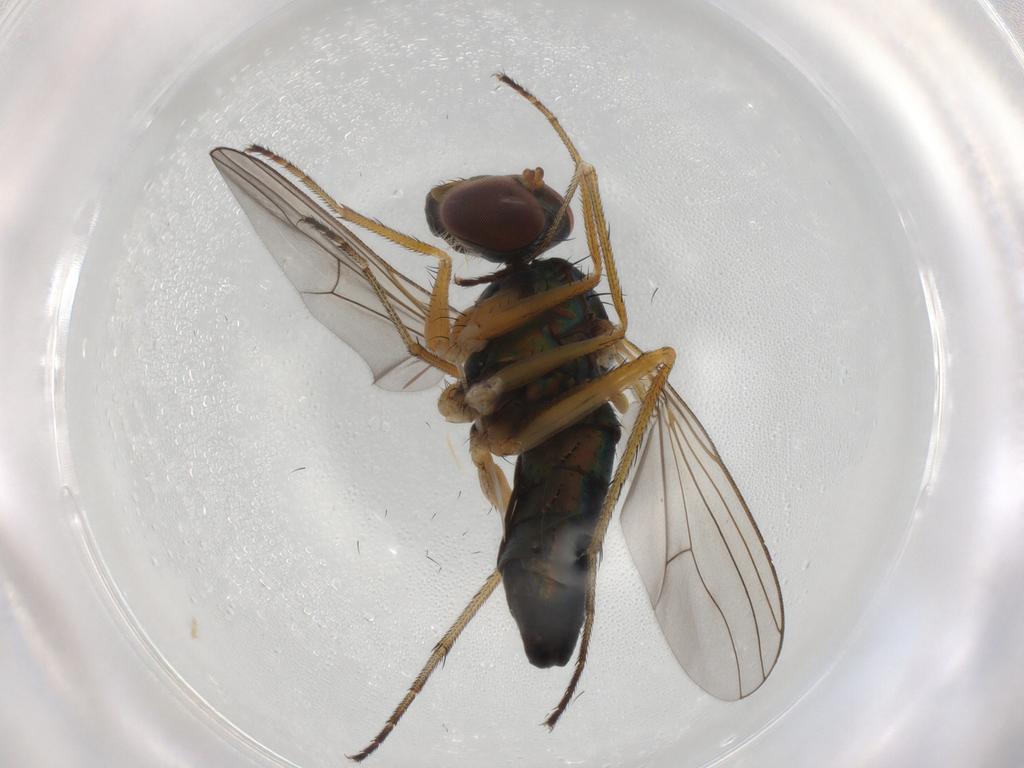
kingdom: Animalia
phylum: Arthropoda
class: Insecta
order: Diptera
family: Dolichopodidae
